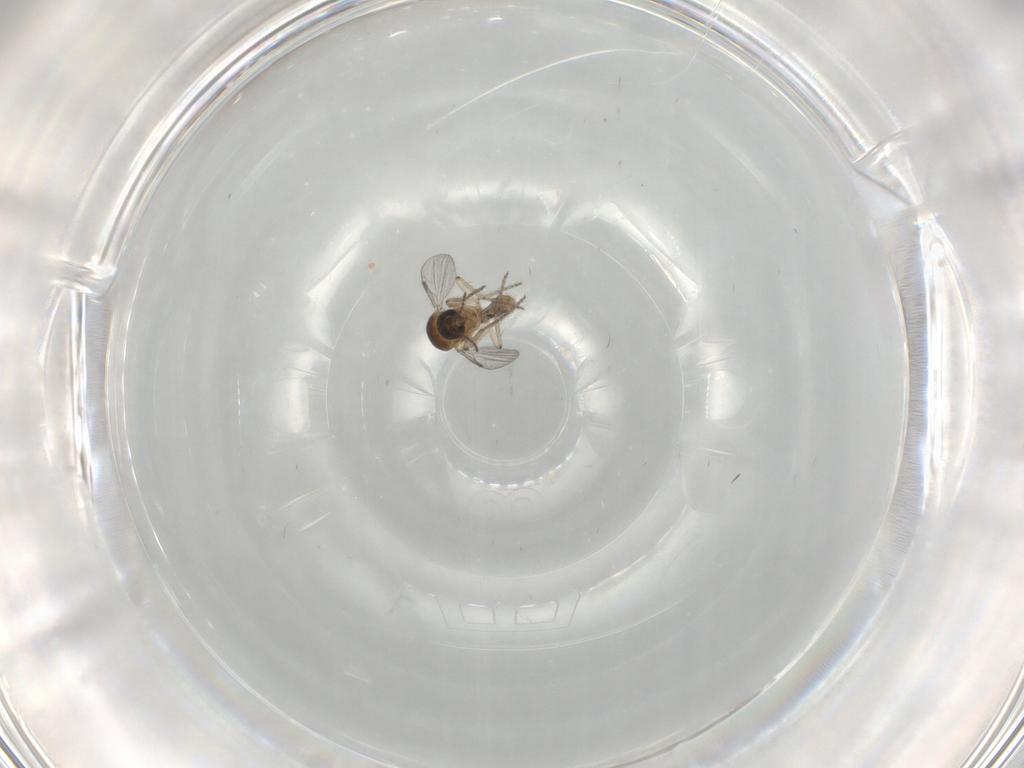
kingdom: Animalia
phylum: Arthropoda
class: Insecta
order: Diptera
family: Ceratopogonidae
